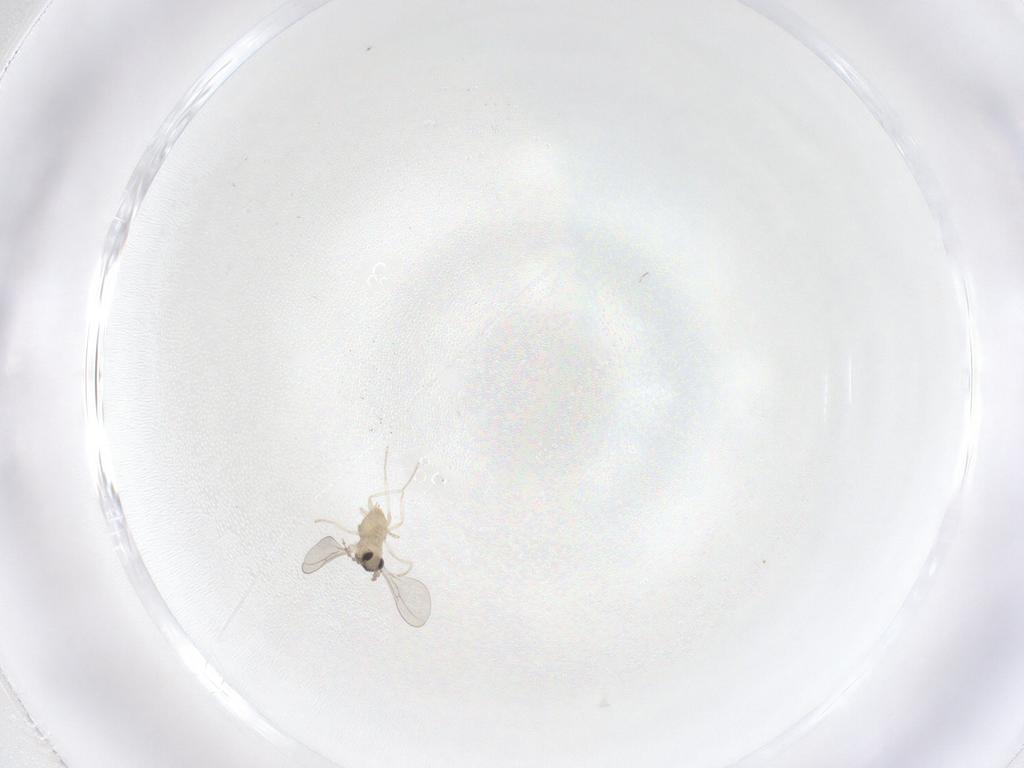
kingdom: Animalia
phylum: Arthropoda
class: Insecta
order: Diptera
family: Cecidomyiidae
